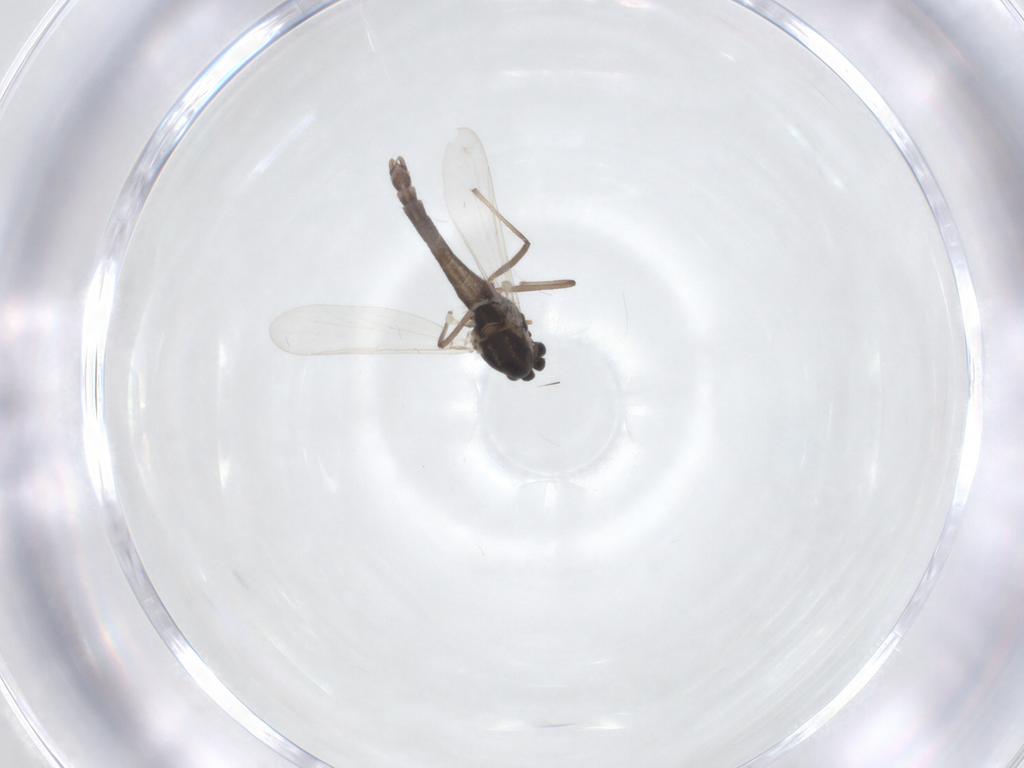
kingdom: Animalia
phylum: Arthropoda
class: Insecta
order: Diptera
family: Chironomidae
